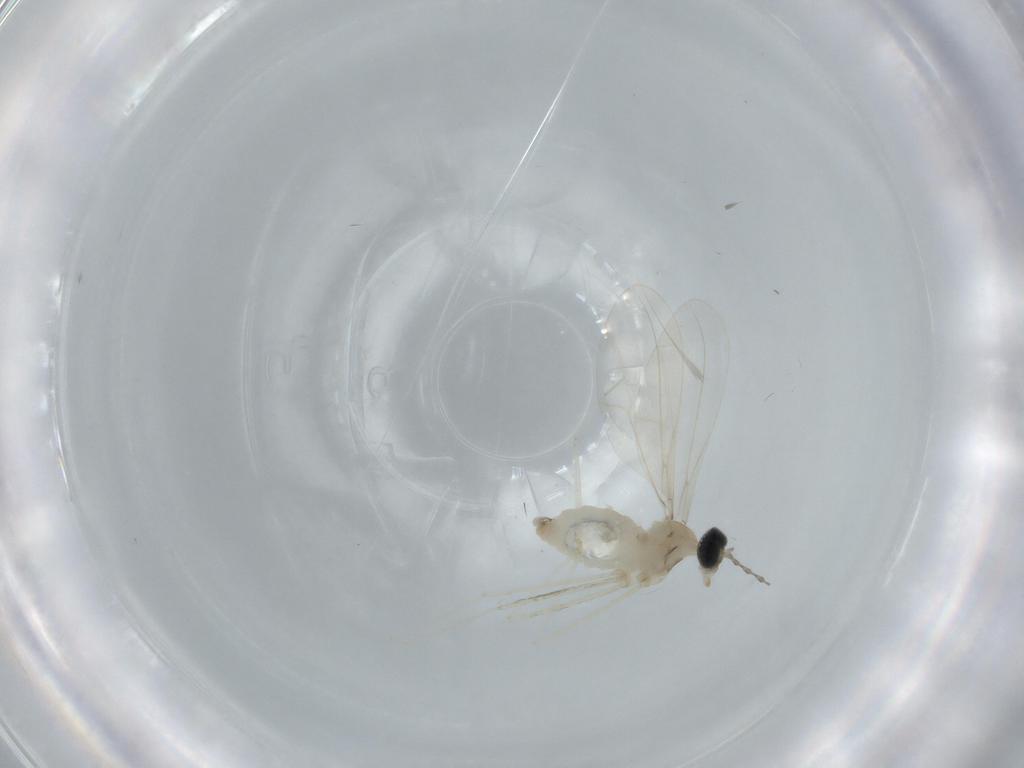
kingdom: Animalia
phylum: Arthropoda
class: Insecta
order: Diptera
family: Cecidomyiidae
